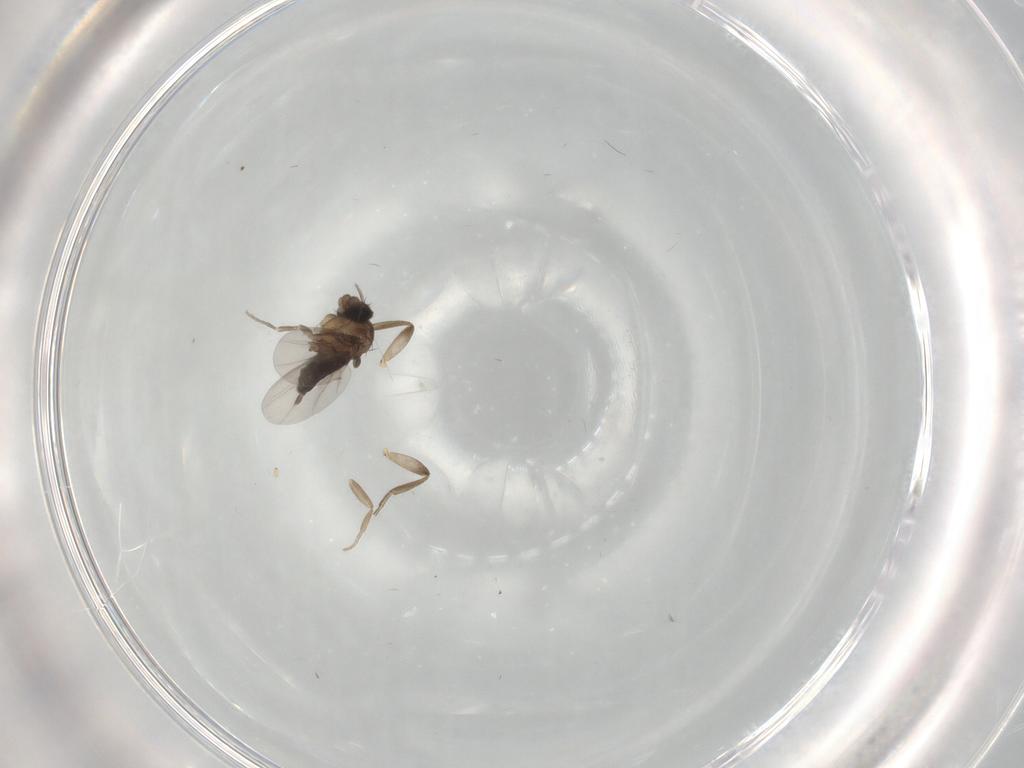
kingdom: Animalia
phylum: Arthropoda
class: Insecta
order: Diptera
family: Phoridae
